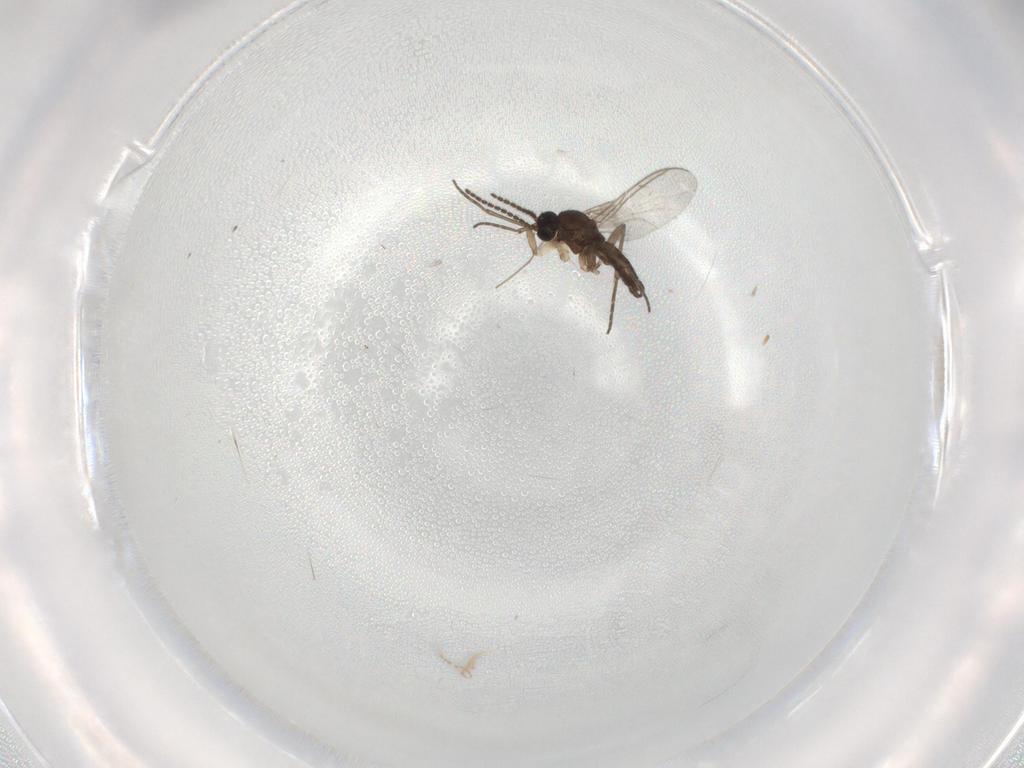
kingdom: Animalia
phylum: Arthropoda
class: Insecta
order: Diptera
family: Sciaridae
